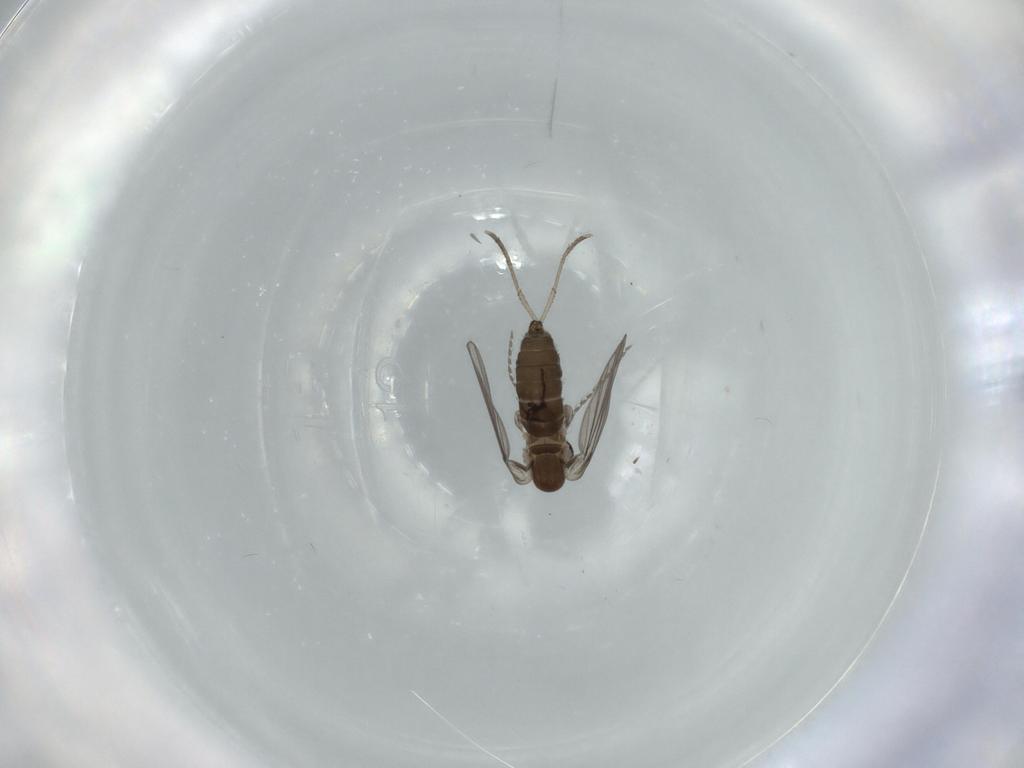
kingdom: Animalia
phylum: Arthropoda
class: Insecta
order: Diptera
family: Psychodidae
